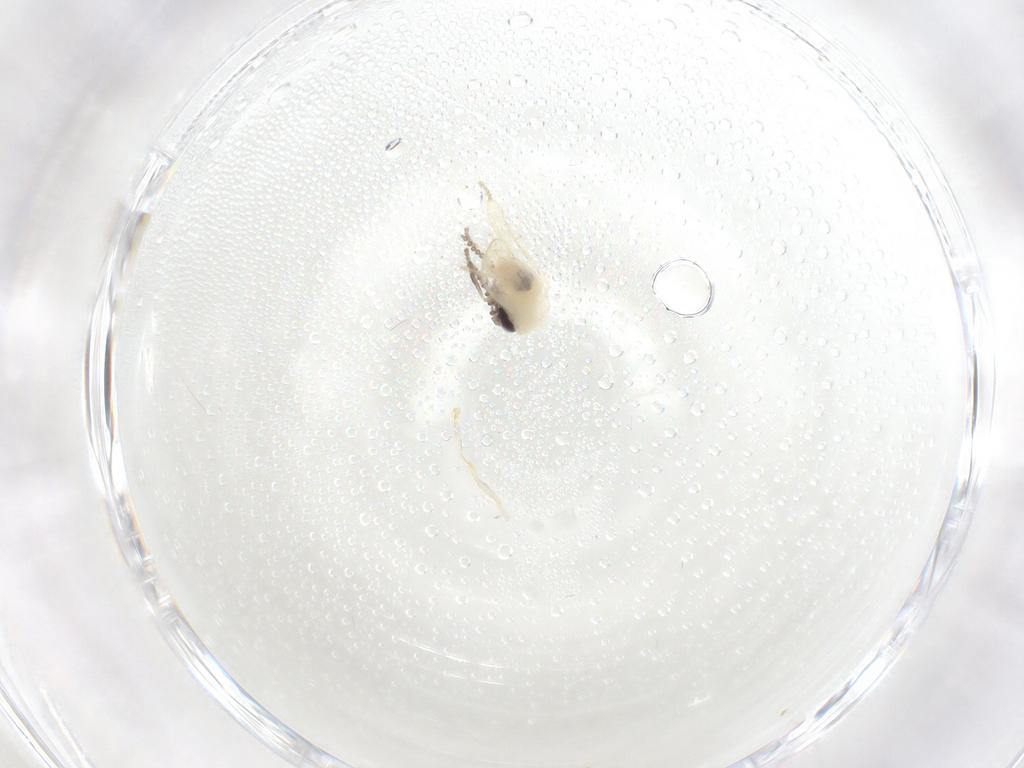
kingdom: Animalia
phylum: Arthropoda
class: Insecta
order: Diptera
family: Psychodidae
